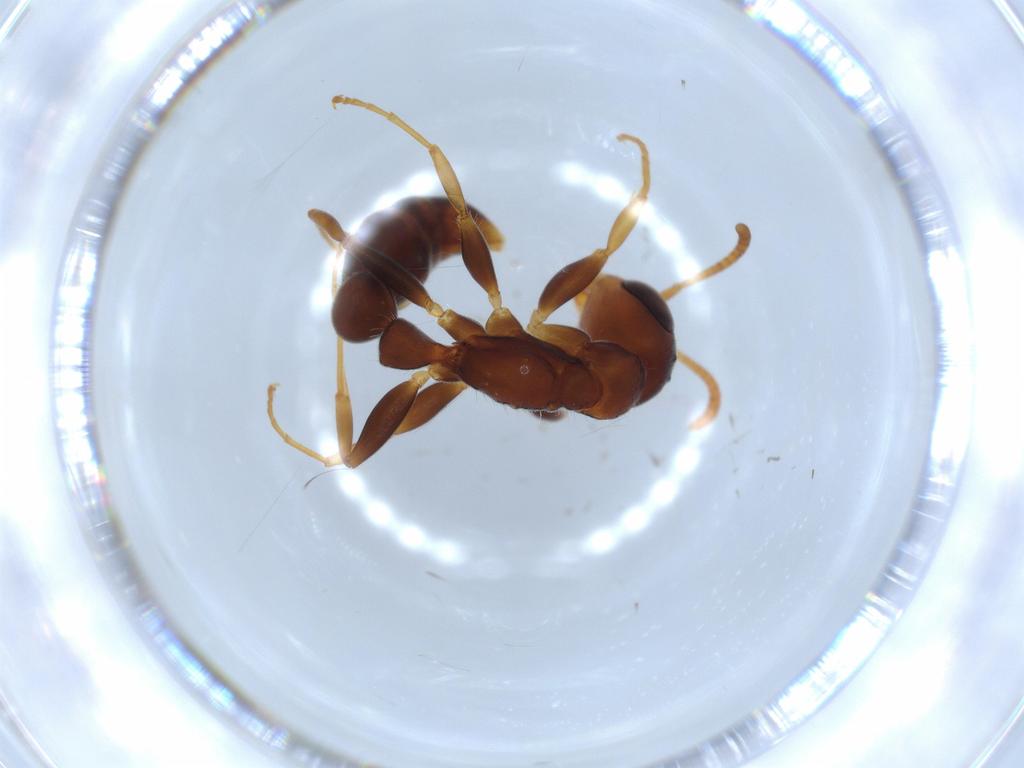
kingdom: Animalia
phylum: Arthropoda
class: Insecta
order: Hymenoptera
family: Formicidae
